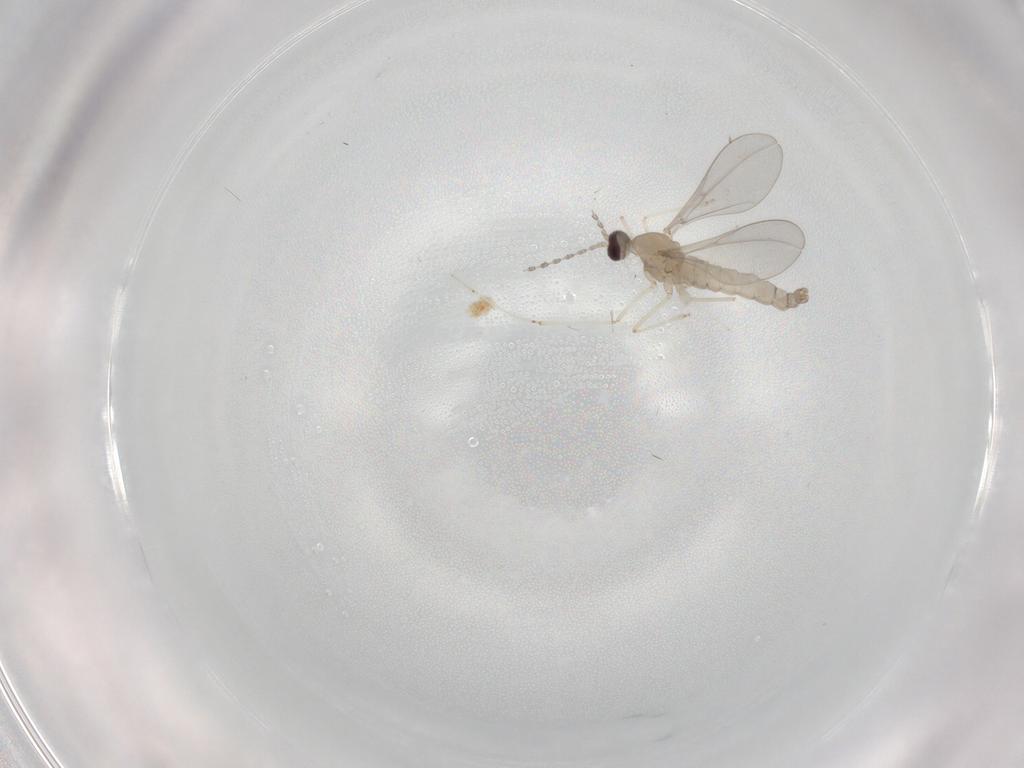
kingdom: Animalia
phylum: Arthropoda
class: Insecta
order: Diptera
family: Cecidomyiidae
